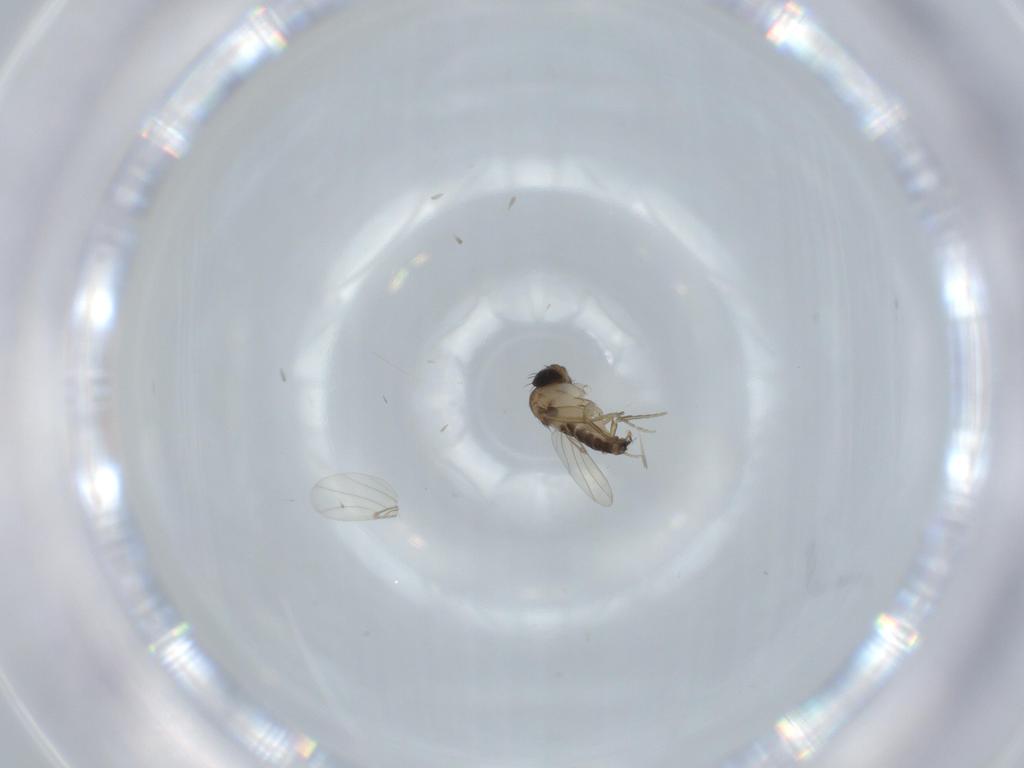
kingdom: Animalia
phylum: Arthropoda
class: Insecta
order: Diptera
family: Phoridae
